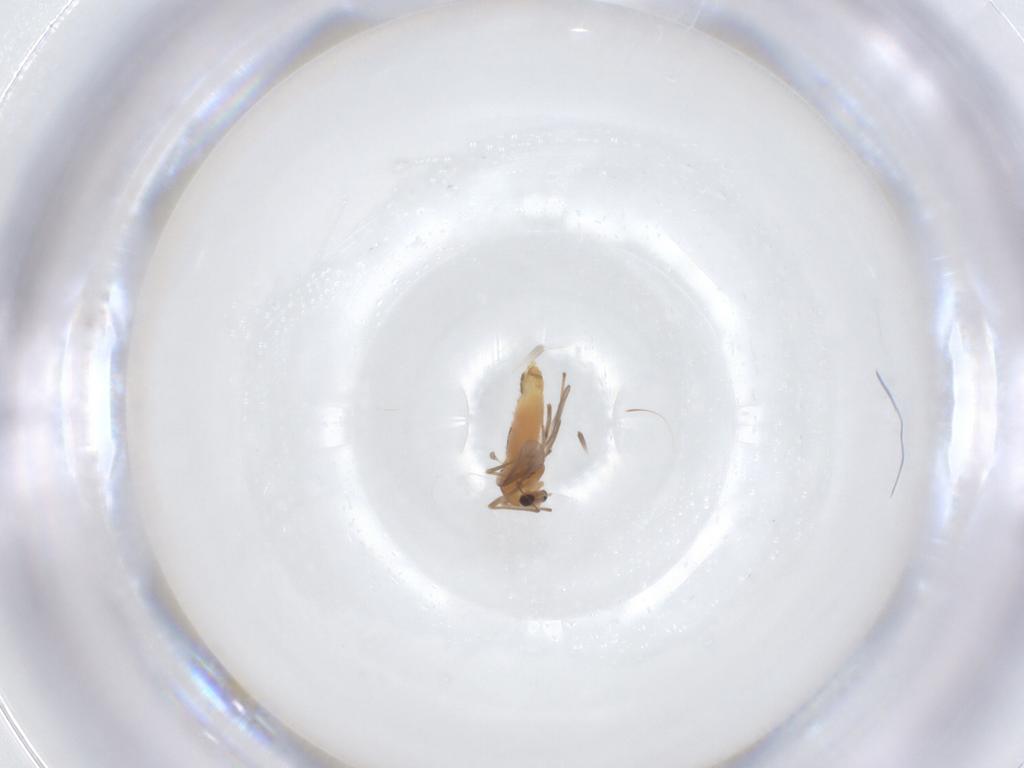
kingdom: Animalia
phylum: Arthropoda
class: Insecta
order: Diptera
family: Chironomidae
